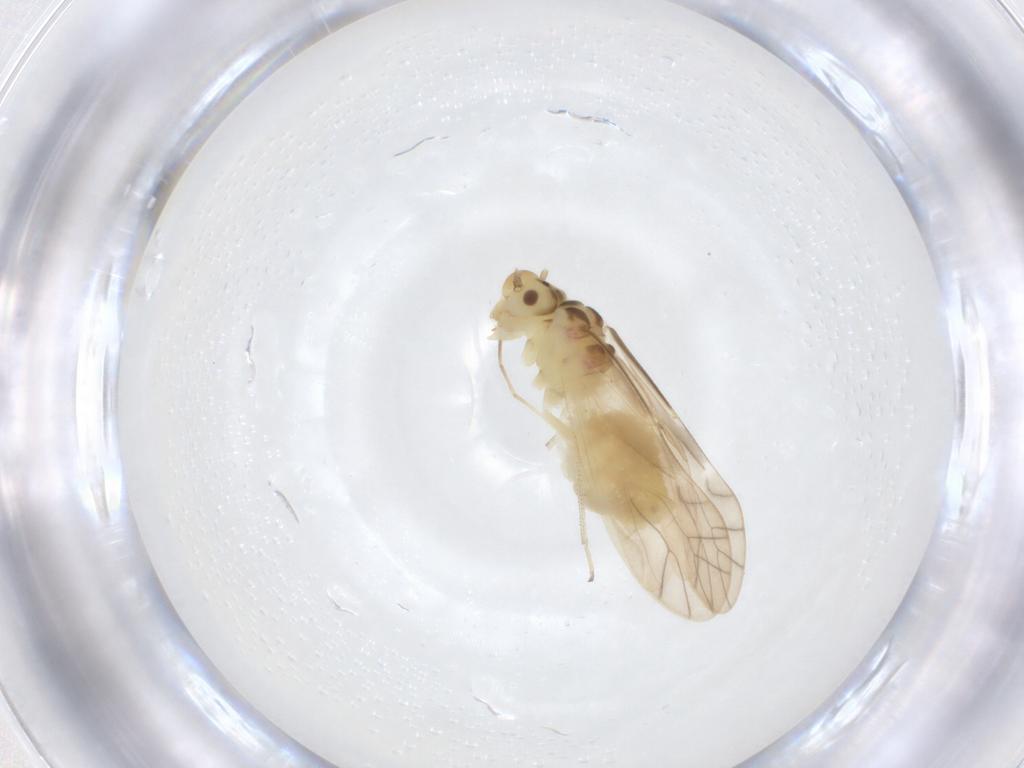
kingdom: Animalia
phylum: Arthropoda
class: Insecta
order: Psocodea
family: Caeciliusidae
